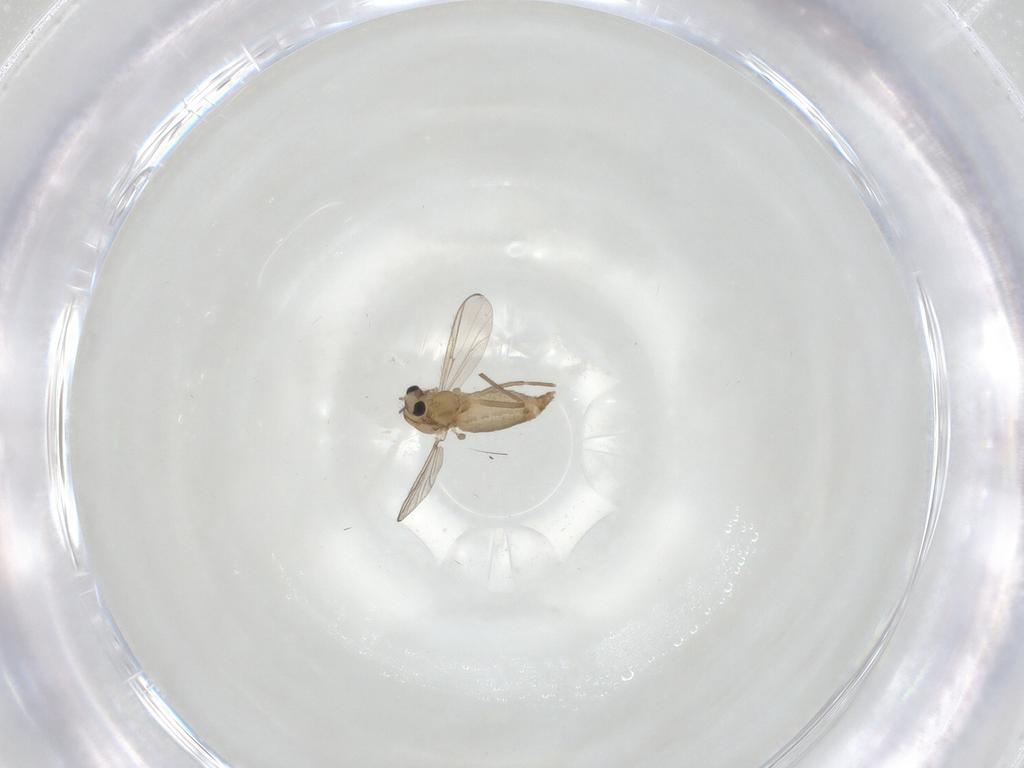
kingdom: Animalia
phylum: Arthropoda
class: Insecta
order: Diptera
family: Chironomidae
